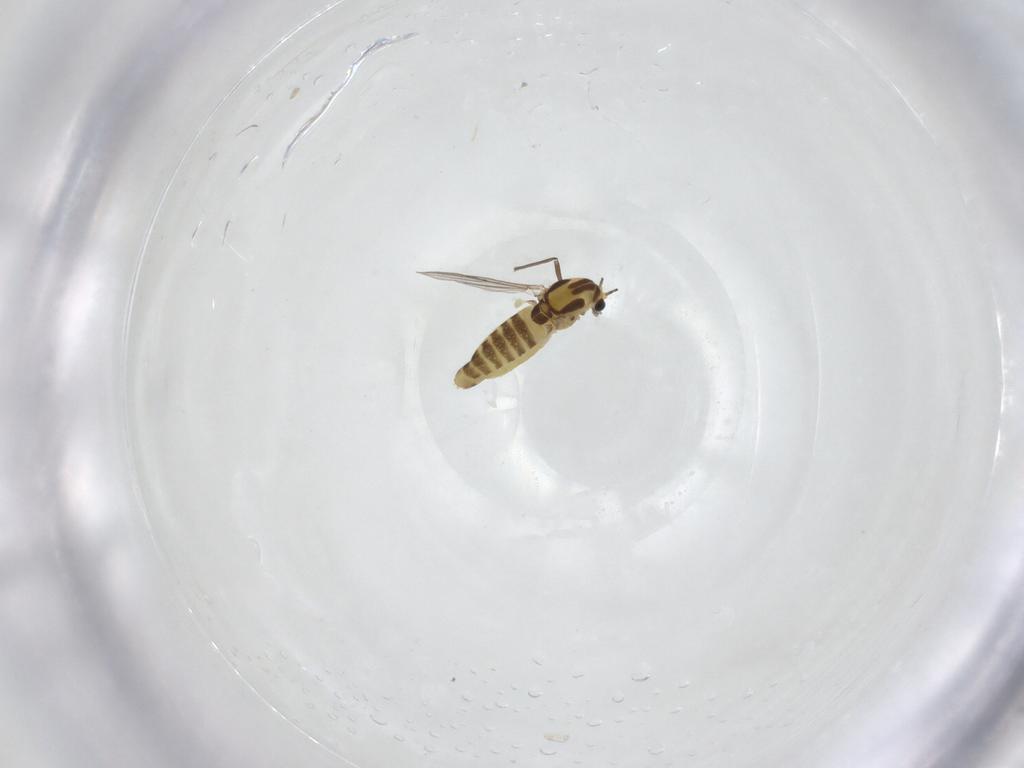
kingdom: Animalia
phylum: Arthropoda
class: Insecta
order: Diptera
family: Chironomidae
